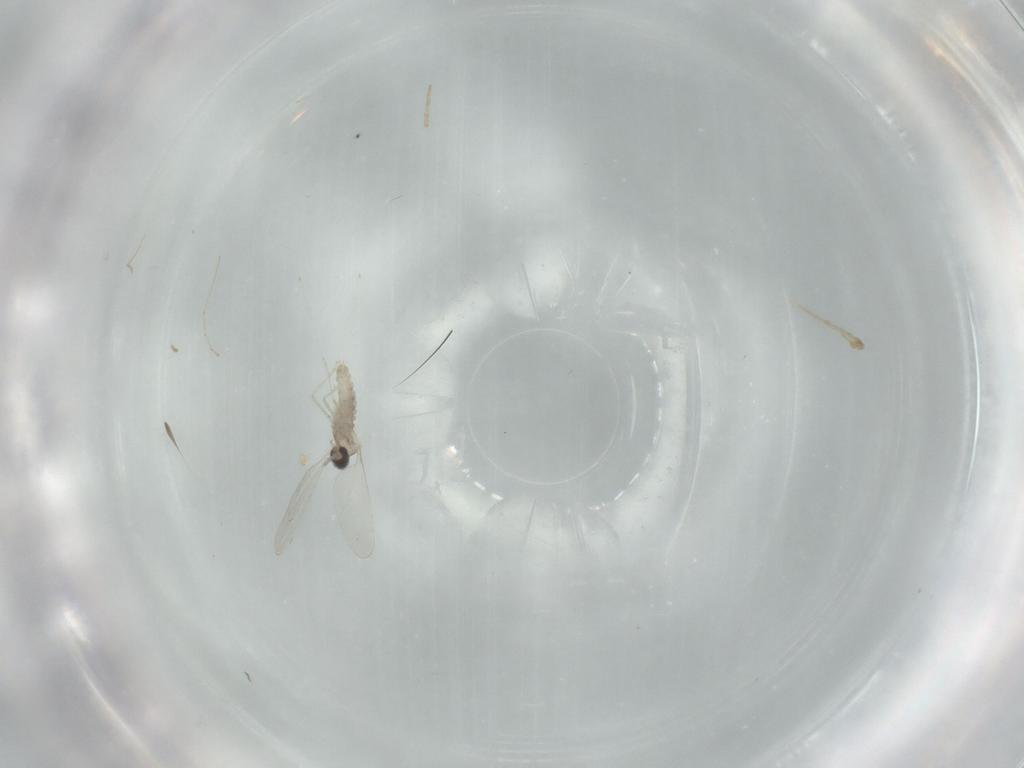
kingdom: Animalia
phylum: Arthropoda
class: Insecta
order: Diptera
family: Cecidomyiidae
